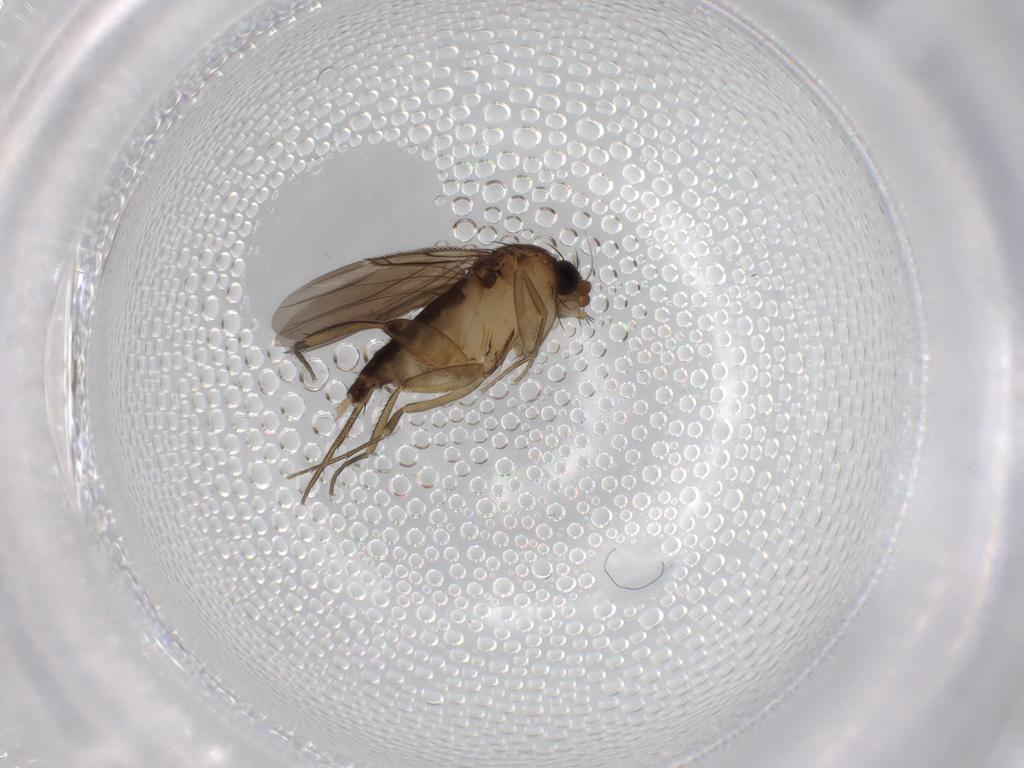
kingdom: Animalia
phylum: Arthropoda
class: Insecta
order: Diptera
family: Phoridae
